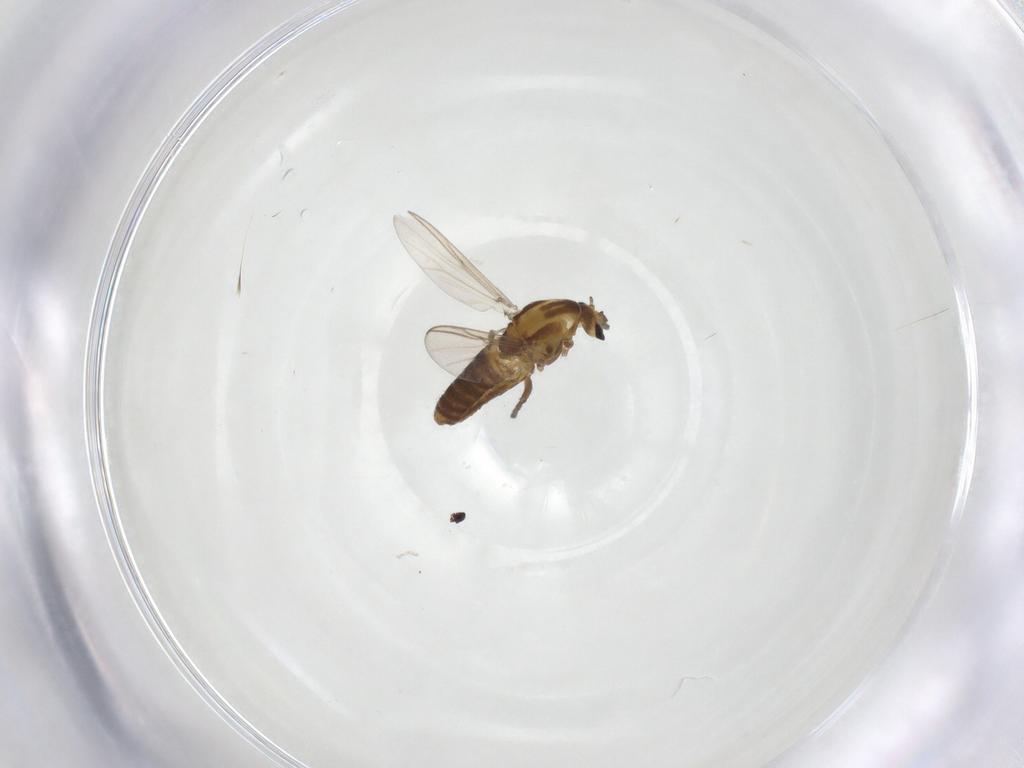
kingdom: Animalia
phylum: Arthropoda
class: Insecta
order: Diptera
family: Chironomidae
